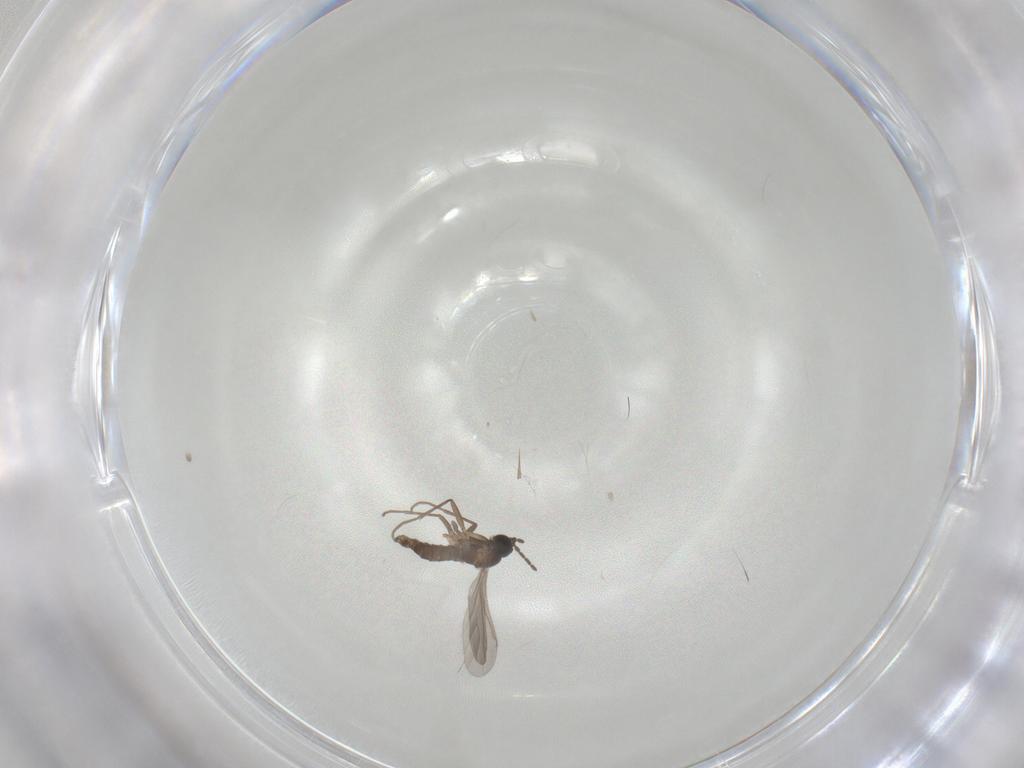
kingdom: Animalia
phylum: Arthropoda
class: Insecta
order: Diptera
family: Sciaridae
